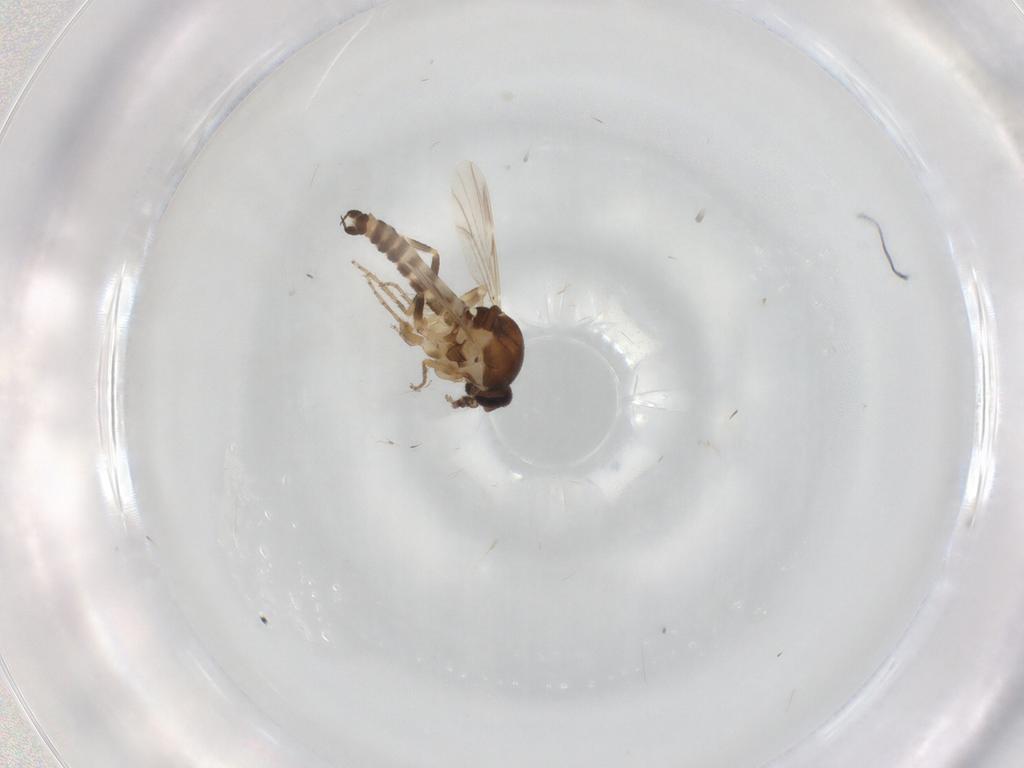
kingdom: Animalia
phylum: Arthropoda
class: Insecta
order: Diptera
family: Ceratopogonidae
